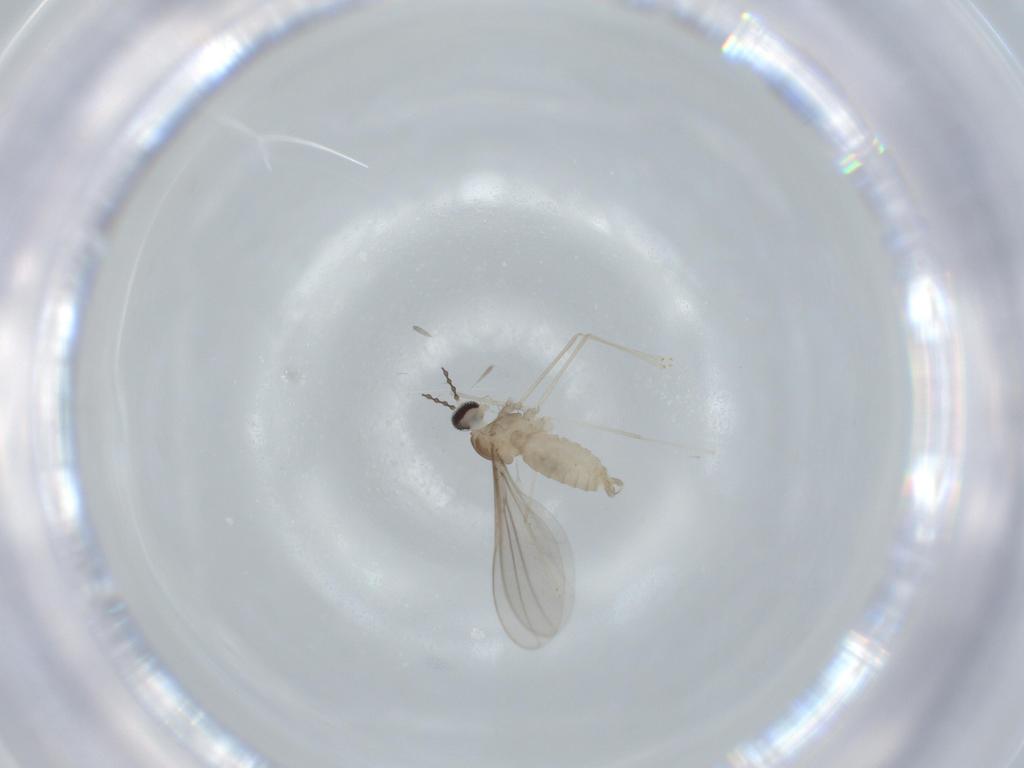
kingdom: Animalia
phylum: Arthropoda
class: Insecta
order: Diptera
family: Cecidomyiidae
